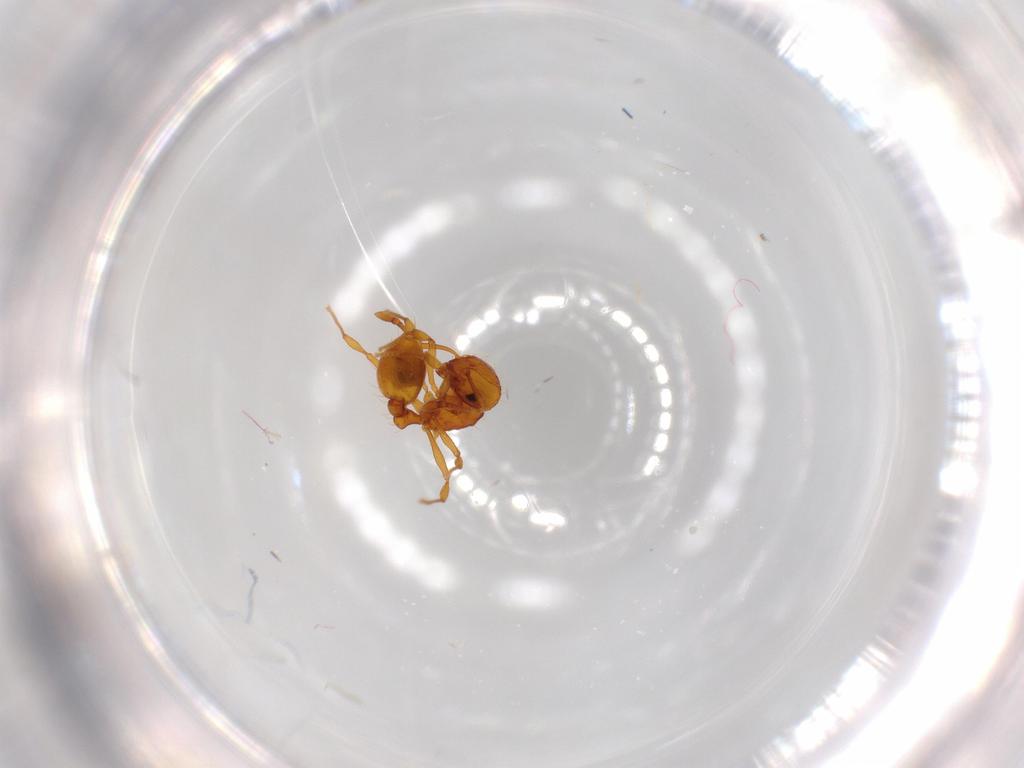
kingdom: Animalia
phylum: Arthropoda
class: Insecta
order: Hymenoptera
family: Formicidae
